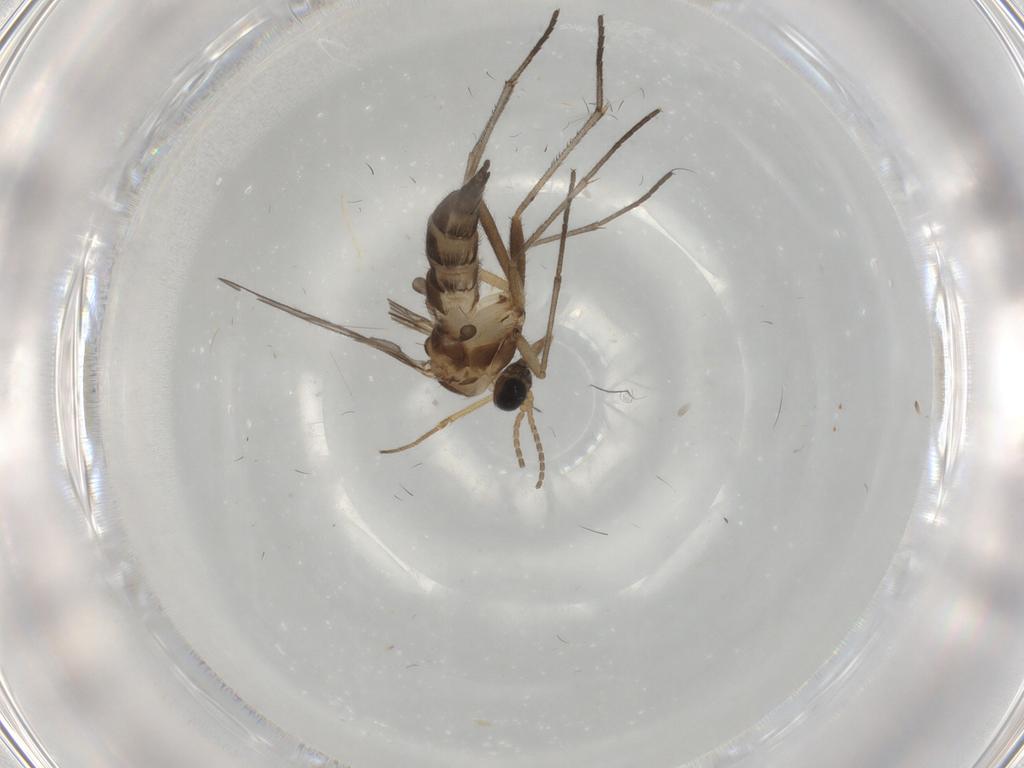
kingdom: Animalia
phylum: Arthropoda
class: Insecta
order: Diptera
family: Sciaridae
